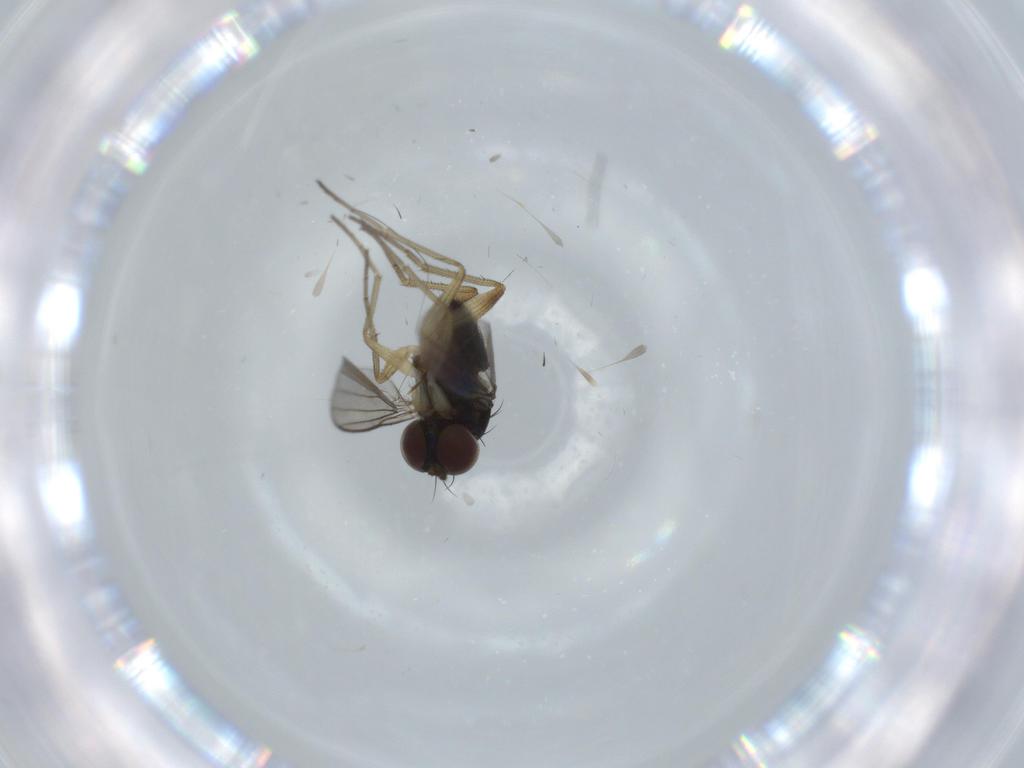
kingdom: Animalia
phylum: Arthropoda
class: Insecta
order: Diptera
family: Dolichopodidae
